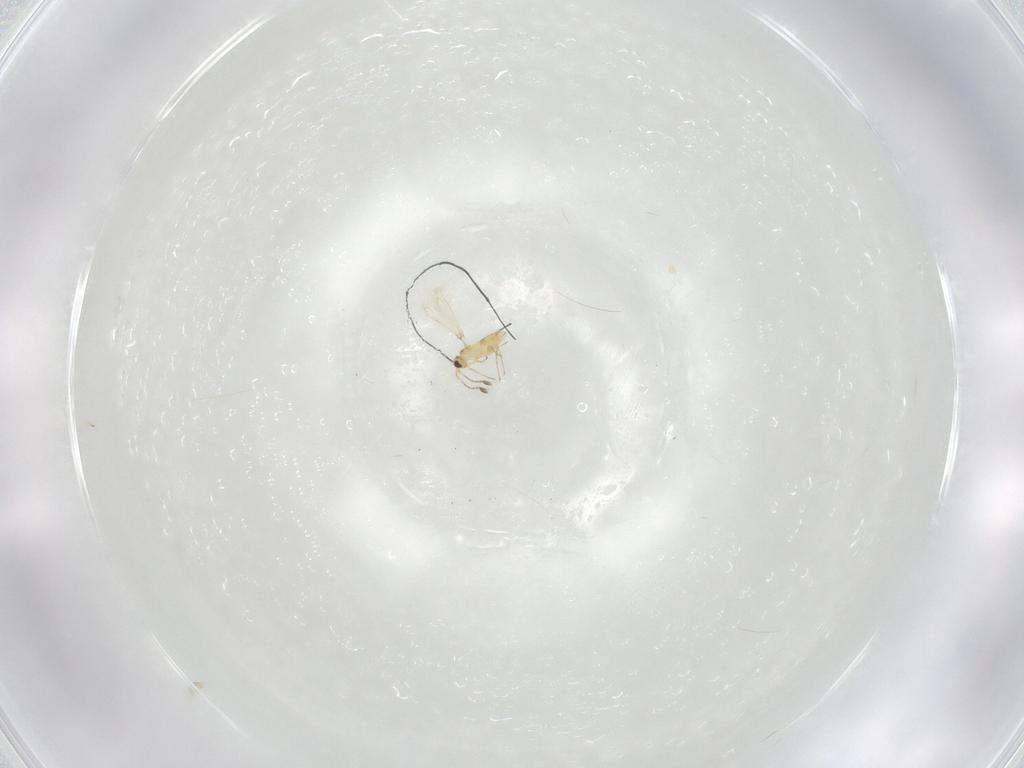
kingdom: Animalia
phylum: Arthropoda
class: Insecta
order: Hymenoptera
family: Mymaridae
